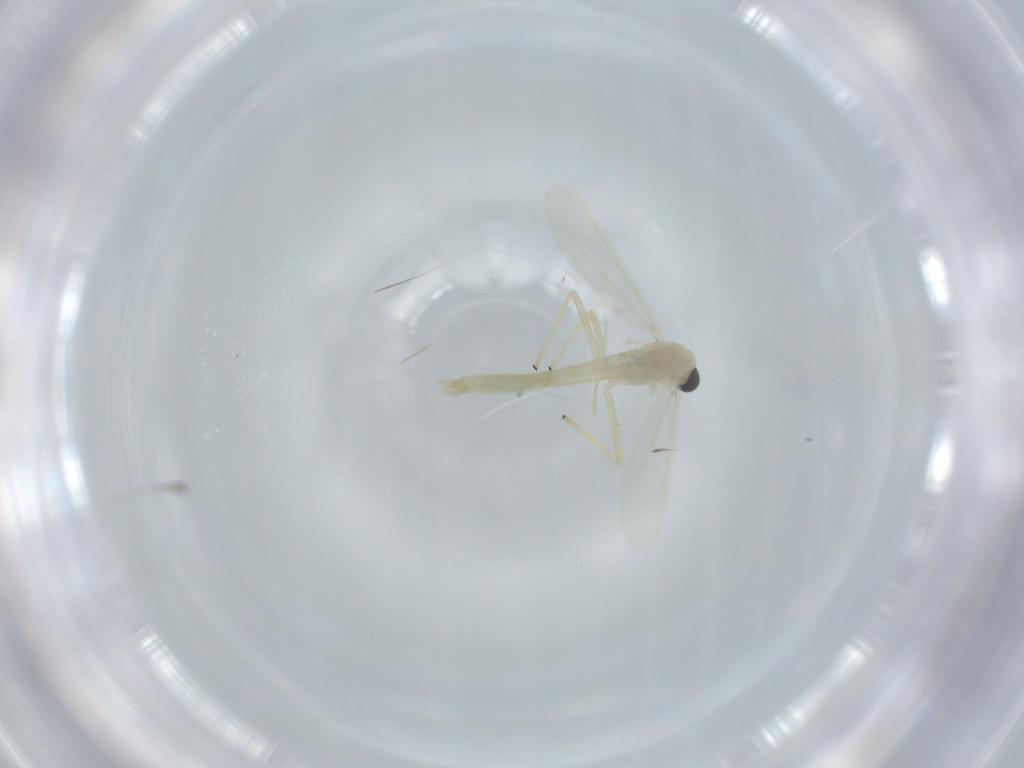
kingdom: Animalia
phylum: Arthropoda
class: Insecta
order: Diptera
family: Chironomidae
